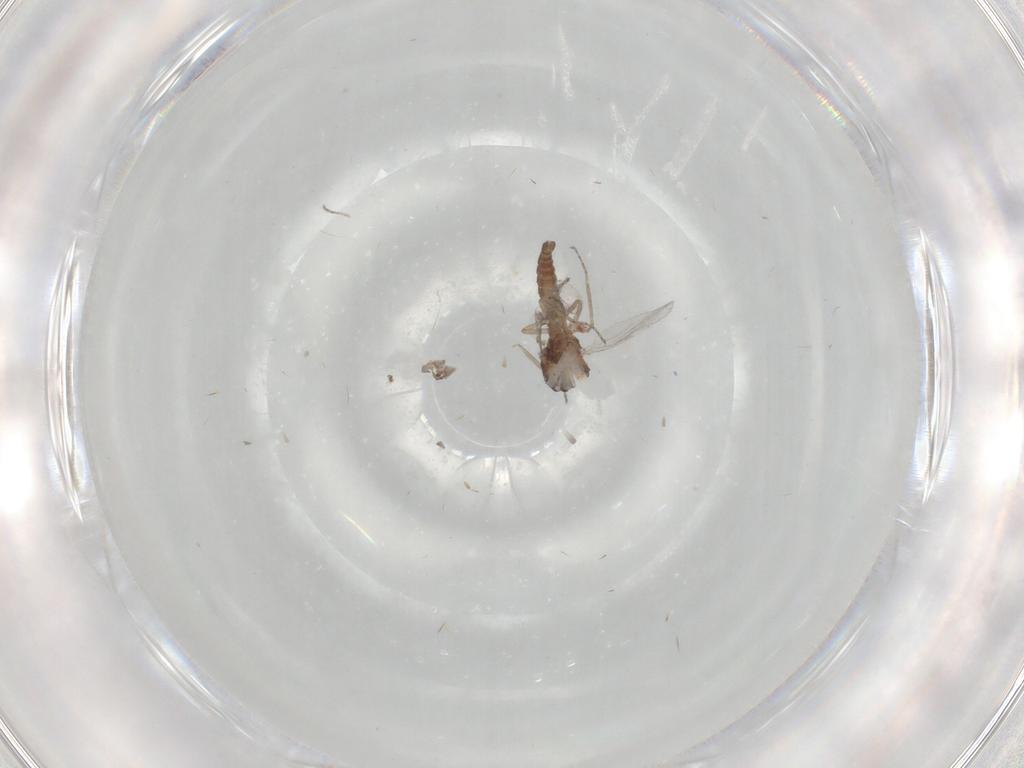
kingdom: Animalia
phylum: Arthropoda
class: Insecta
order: Diptera
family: Ceratopogonidae
